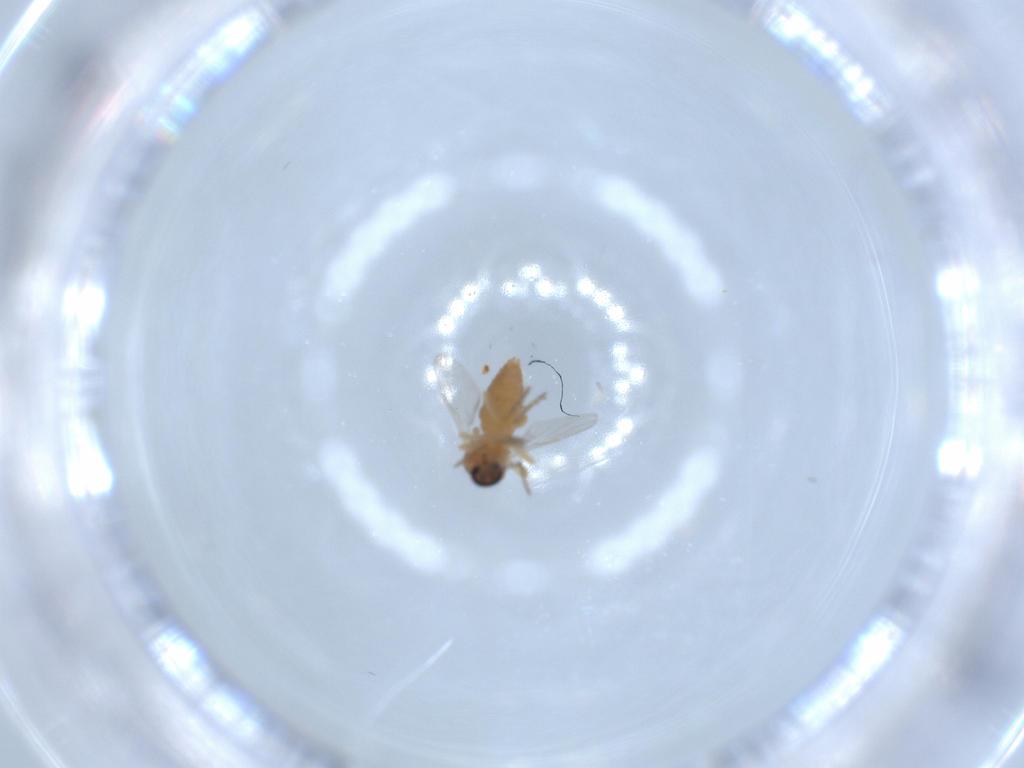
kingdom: Animalia
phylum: Arthropoda
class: Insecta
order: Diptera
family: Ceratopogonidae
